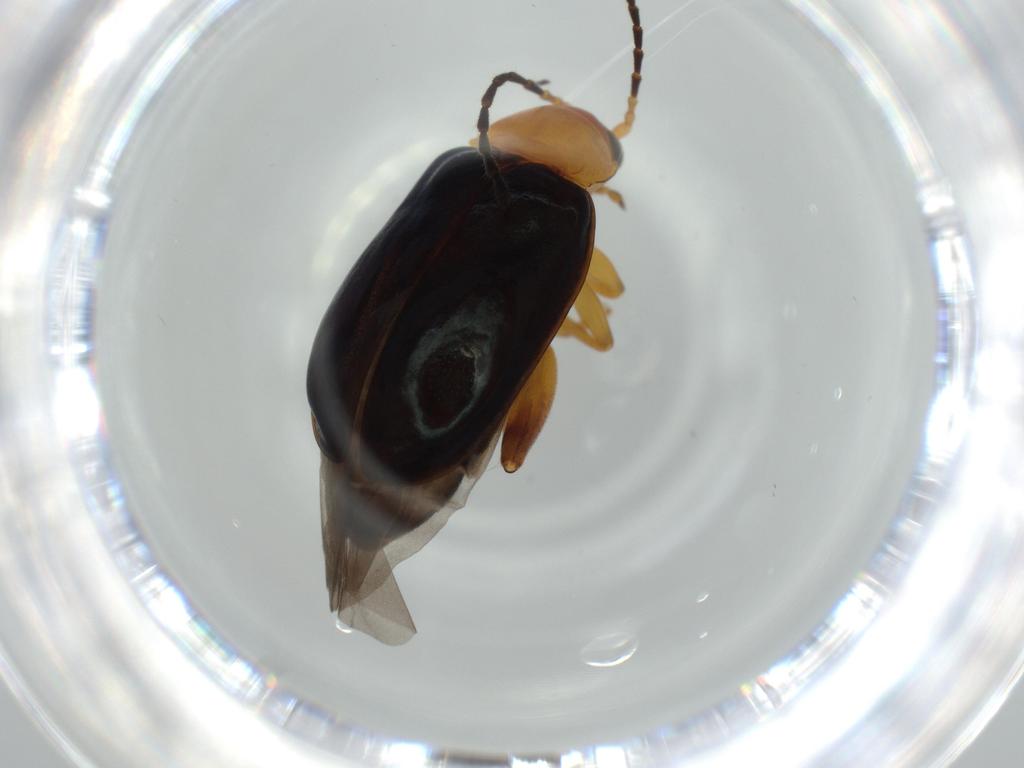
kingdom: Animalia
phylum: Arthropoda
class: Insecta
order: Coleoptera
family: Chrysomelidae
